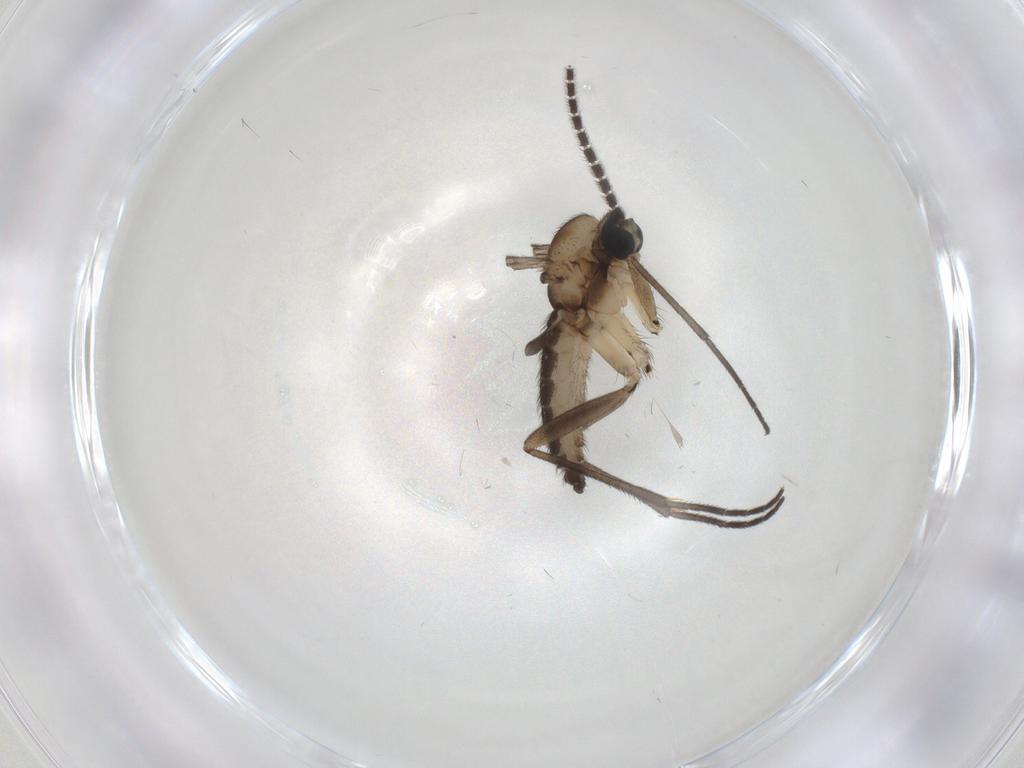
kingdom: Animalia
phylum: Arthropoda
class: Insecta
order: Diptera
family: Sciaridae
